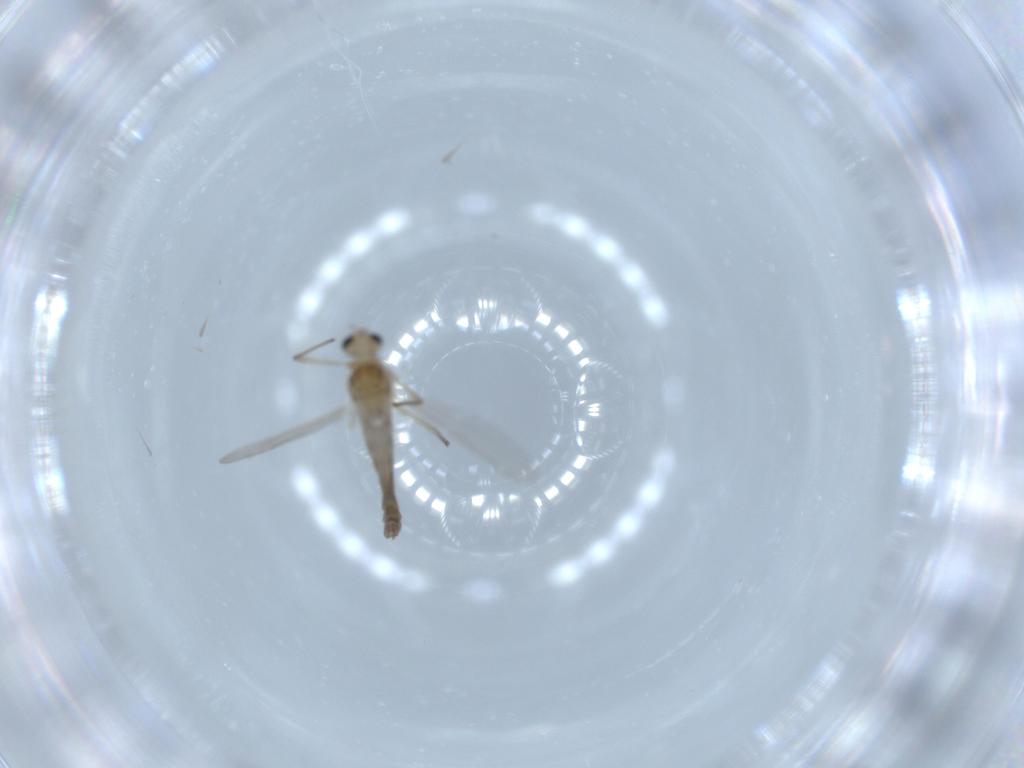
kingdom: Animalia
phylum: Arthropoda
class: Insecta
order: Diptera
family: Chironomidae
